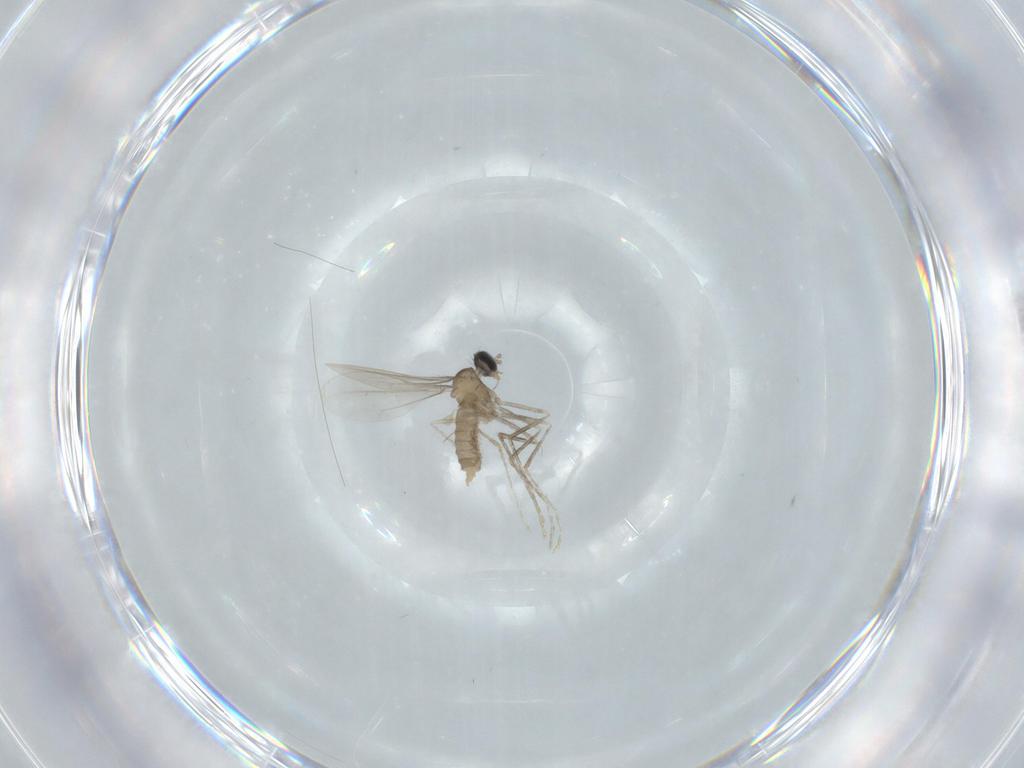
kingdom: Animalia
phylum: Arthropoda
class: Insecta
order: Diptera
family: Cecidomyiidae
